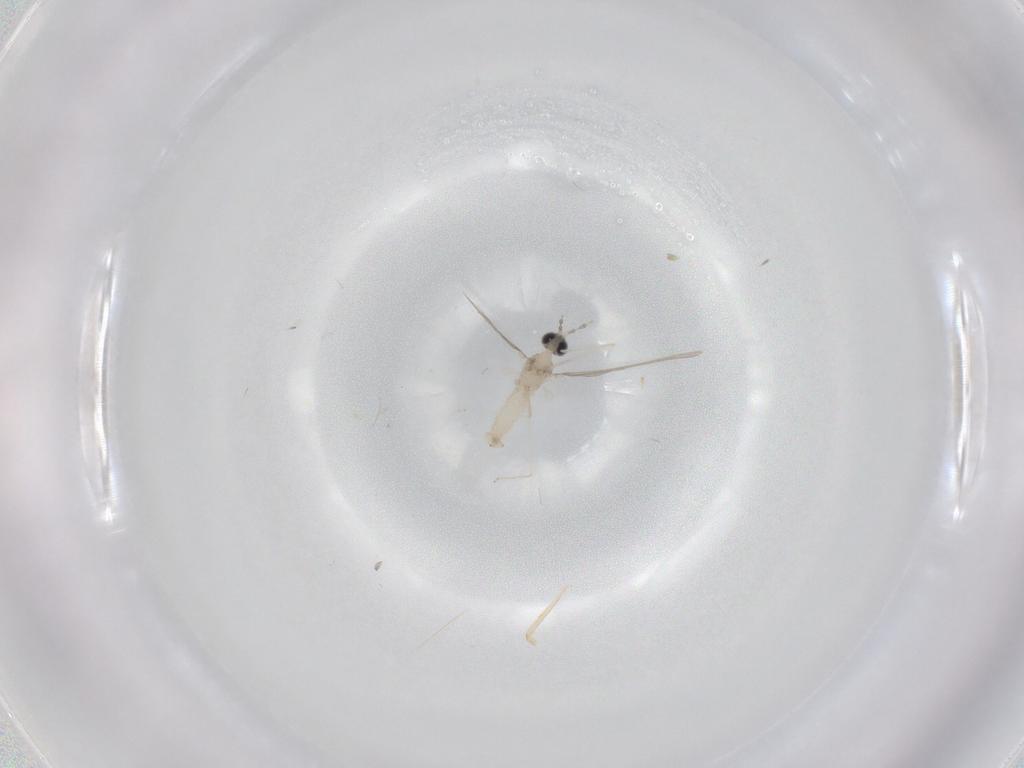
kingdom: Animalia
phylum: Arthropoda
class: Insecta
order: Diptera
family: Cecidomyiidae
